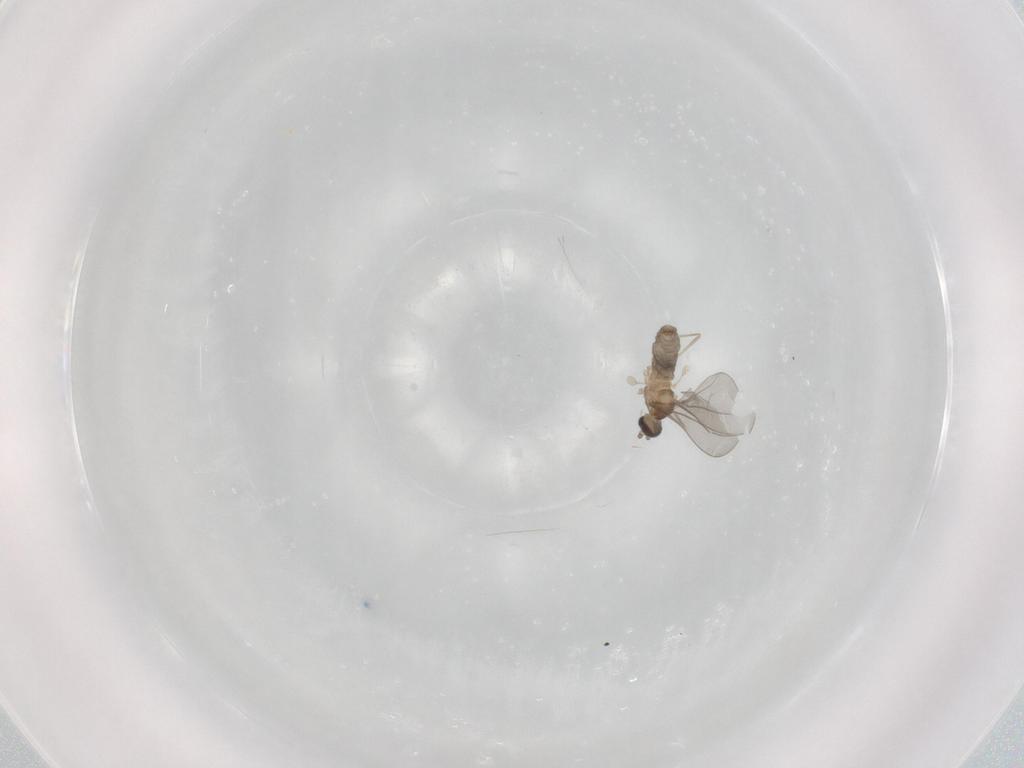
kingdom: Animalia
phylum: Arthropoda
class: Insecta
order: Diptera
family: Cecidomyiidae
